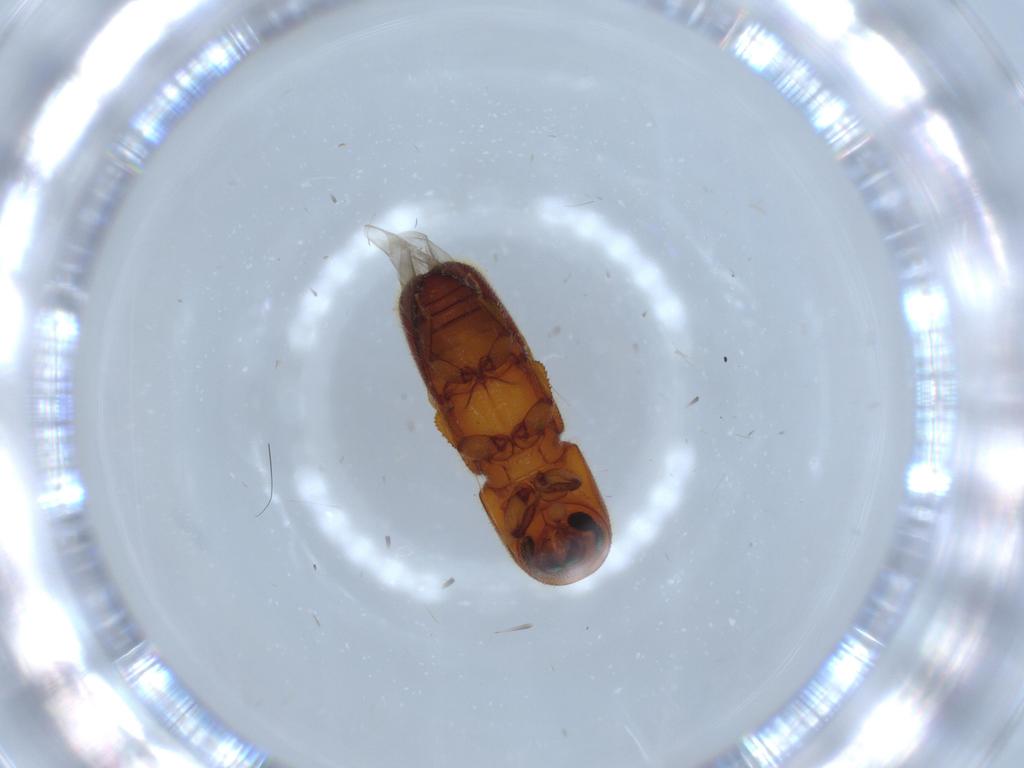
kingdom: Animalia
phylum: Arthropoda
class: Insecta
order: Coleoptera
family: Curculionidae
